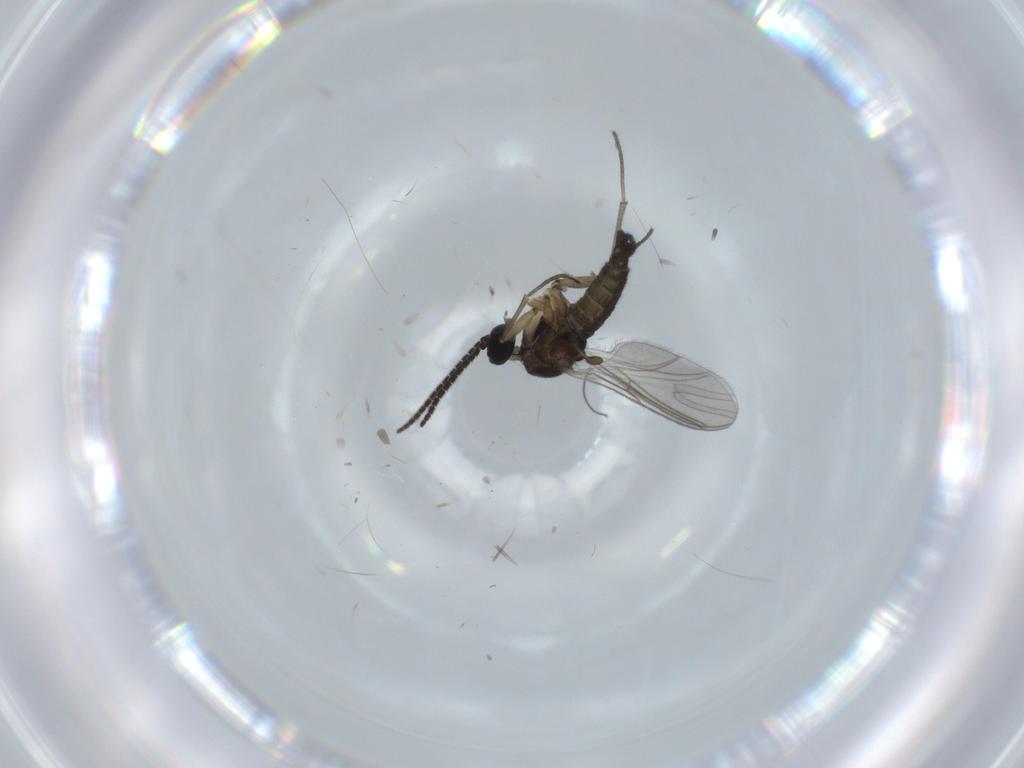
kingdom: Animalia
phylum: Arthropoda
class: Insecta
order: Diptera
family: Sciaridae
